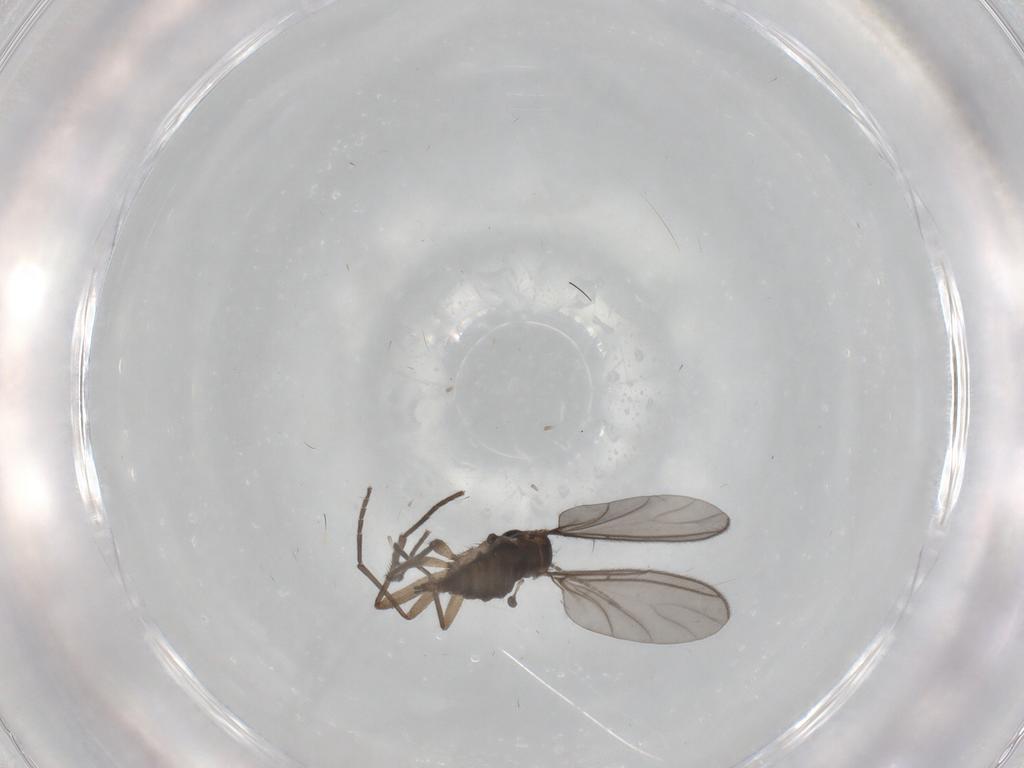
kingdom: Animalia
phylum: Arthropoda
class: Insecta
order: Diptera
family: Sciaridae
